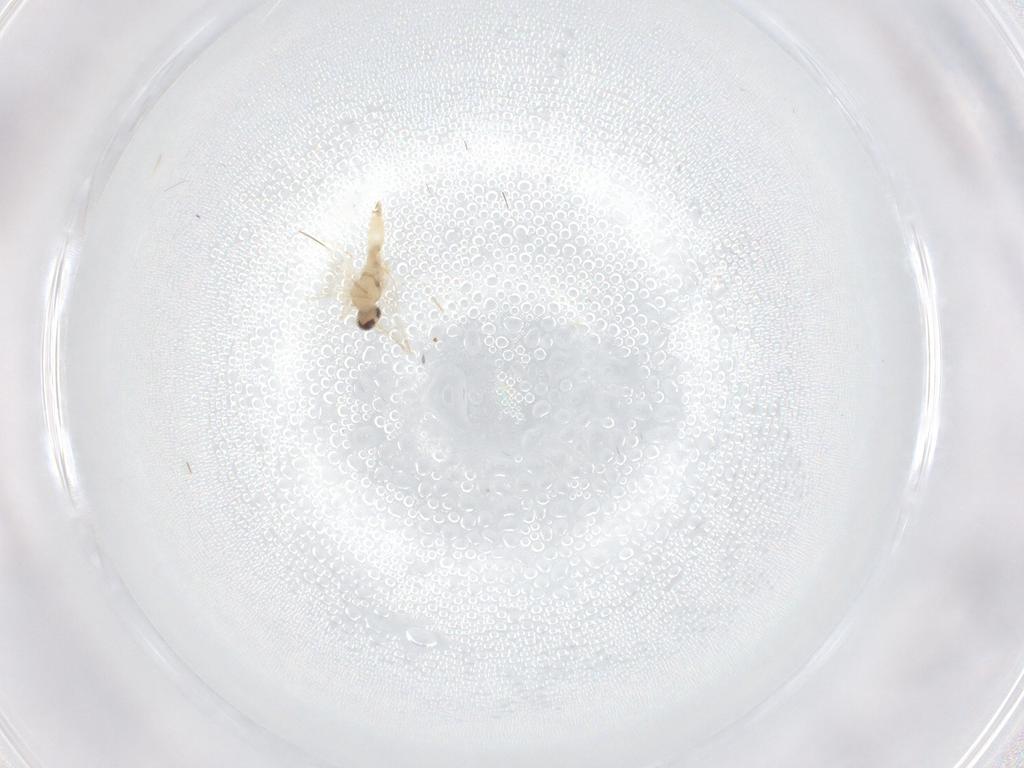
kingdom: Animalia
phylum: Arthropoda
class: Insecta
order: Diptera
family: Cecidomyiidae
